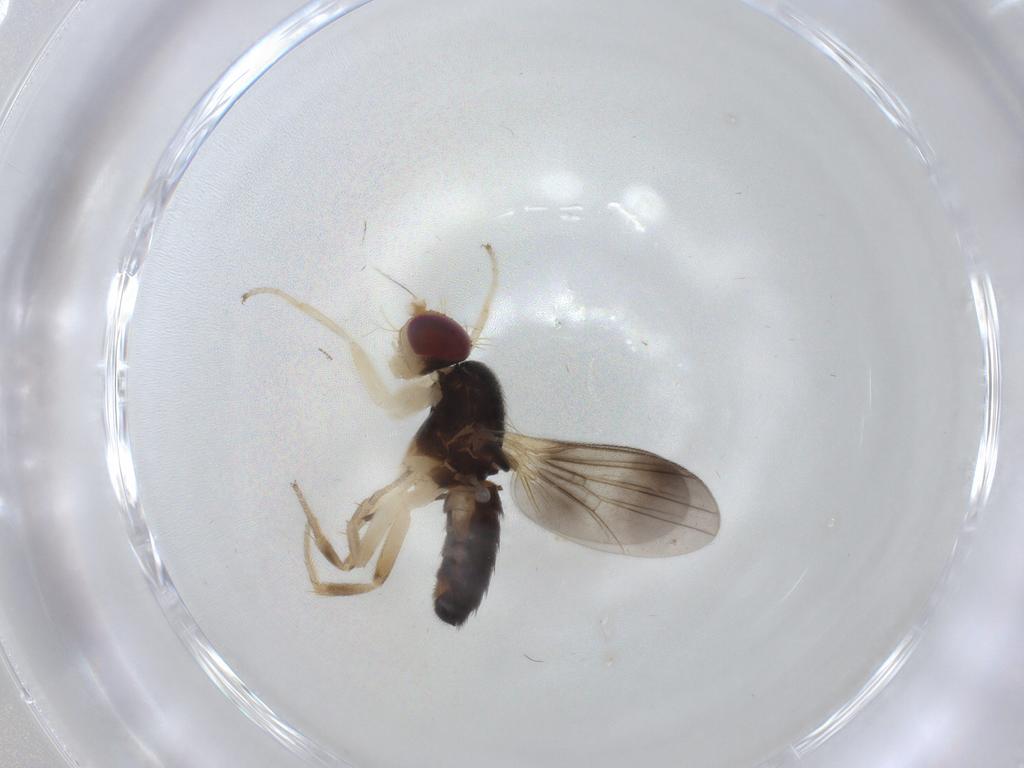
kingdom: Animalia
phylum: Arthropoda
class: Insecta
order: Diptera
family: Clusiidae
